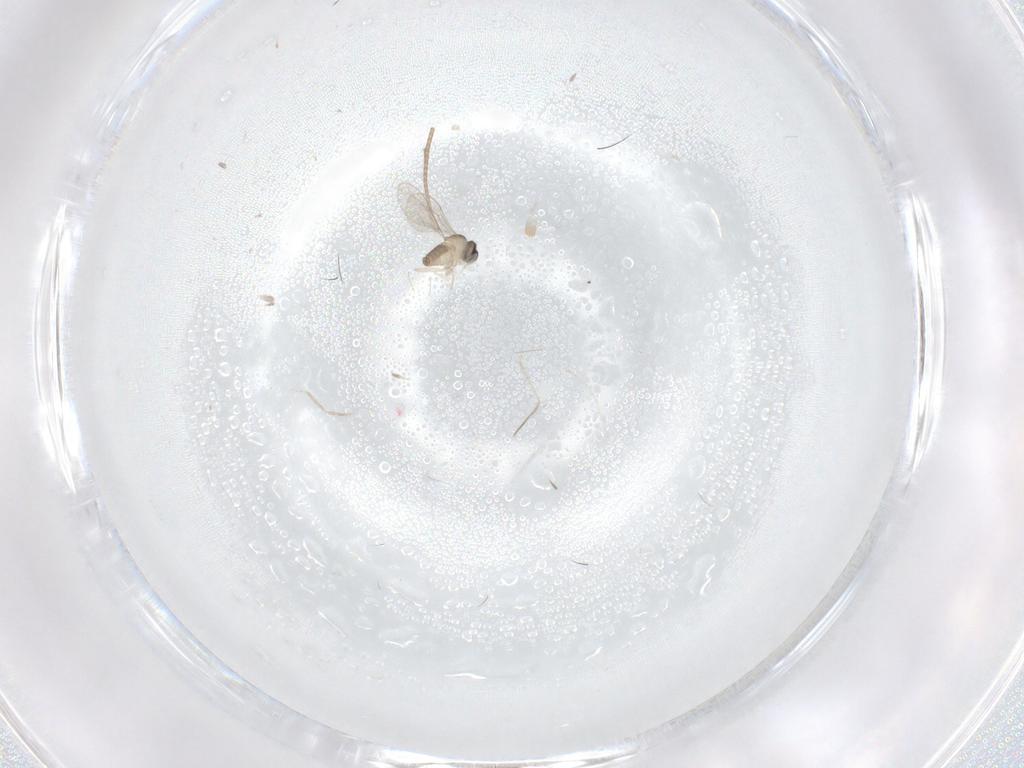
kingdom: Animalia
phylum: Arthropoda
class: Insecta
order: Diptera
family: Sciaridae
